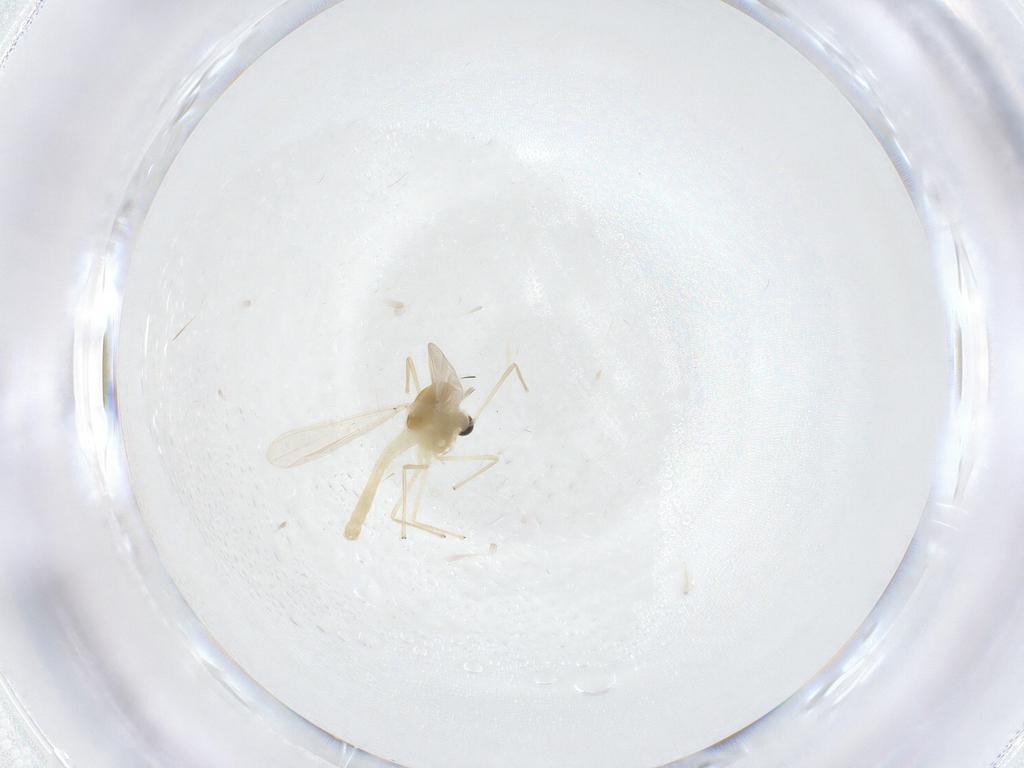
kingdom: Animalia
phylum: Arthropoda
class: Insecta
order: Diptera
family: Chironomidae
